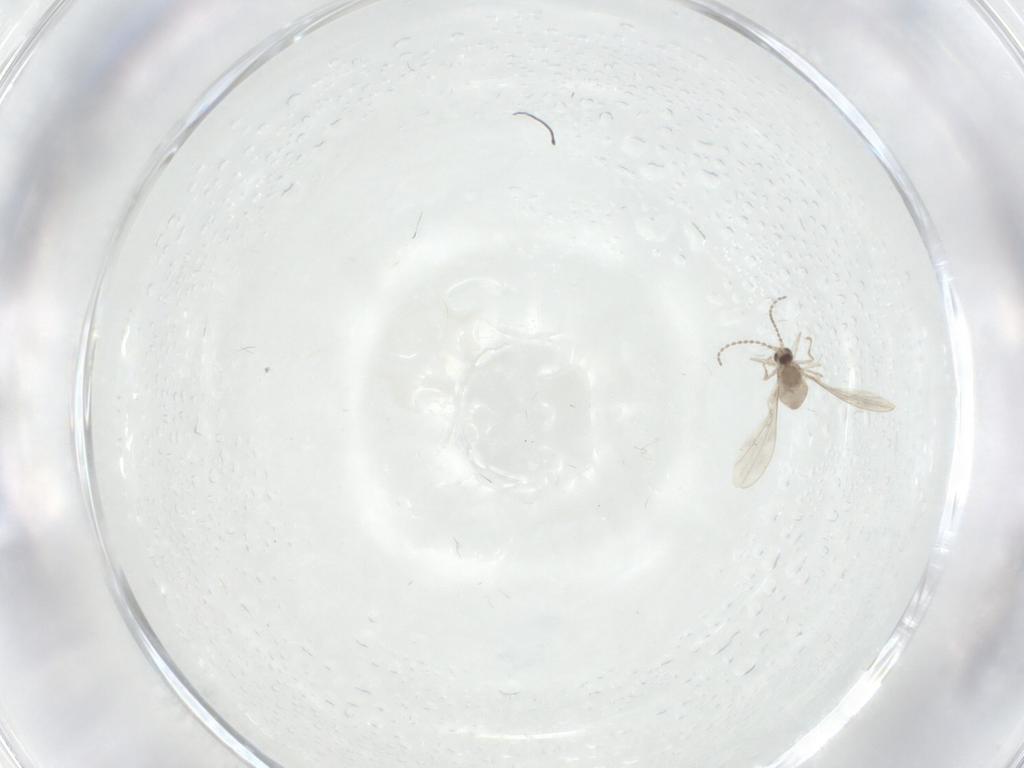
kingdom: Animalia
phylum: Arthropoda
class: Insecta
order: Diptera
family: Cecidomyiidae
